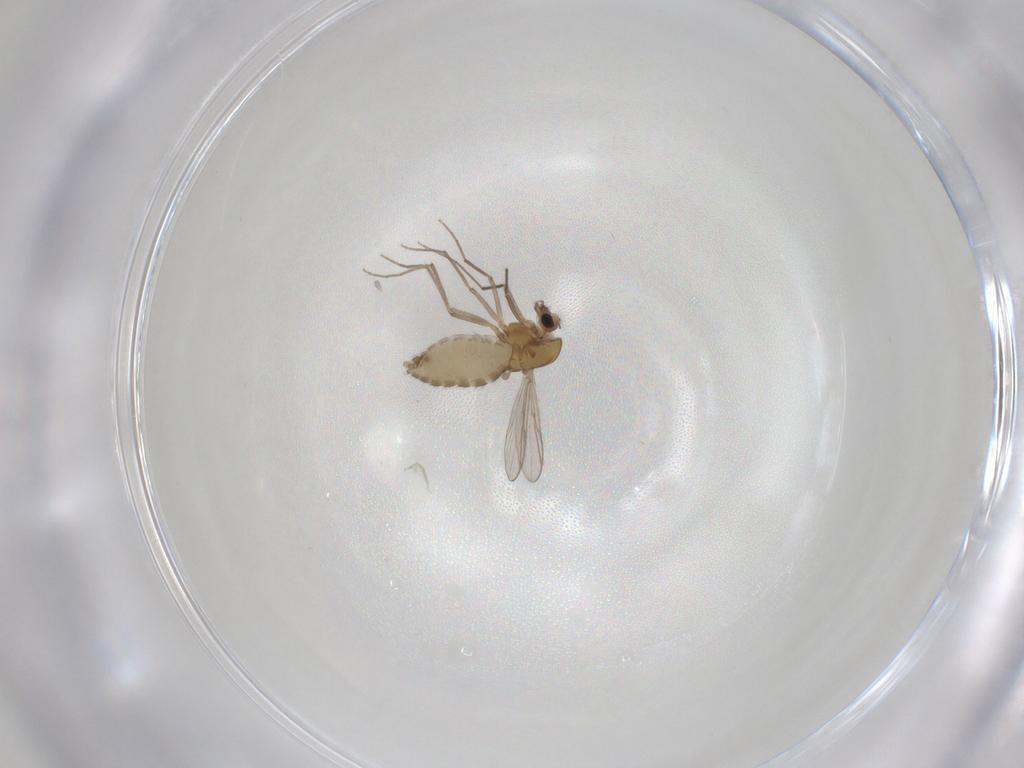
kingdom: Animalia
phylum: Arthropoda
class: Insecta
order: Diptera
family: Chironomidae
